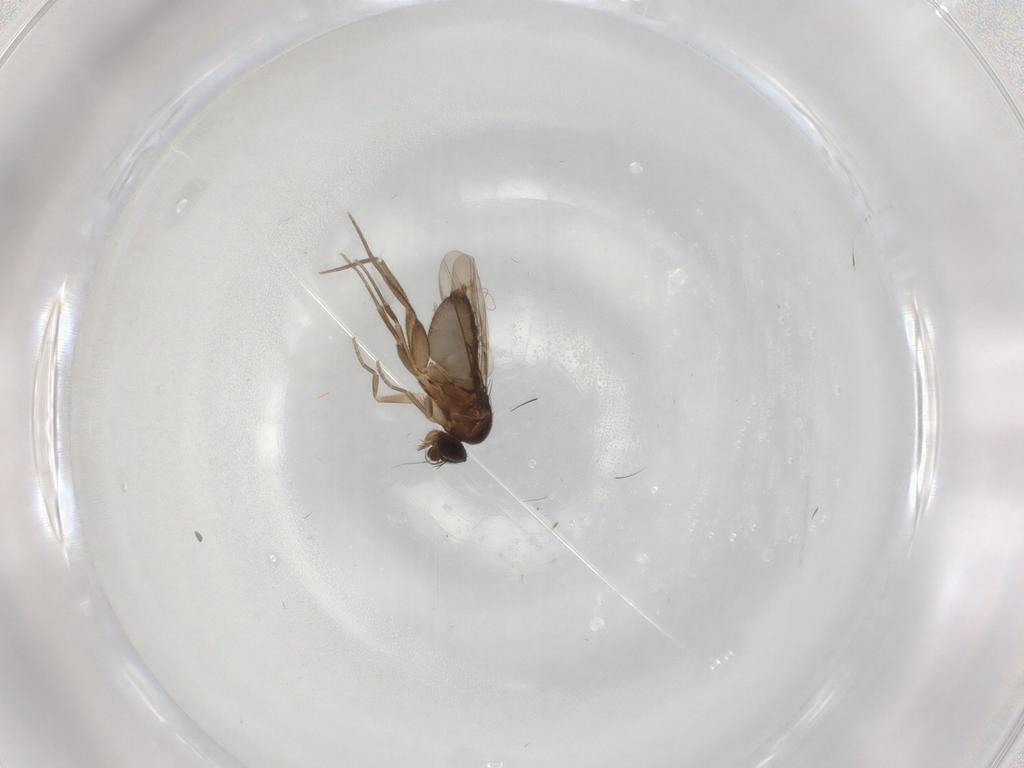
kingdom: Animalia
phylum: Arthropoda
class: Insecta
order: Diptera
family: Phoridae
